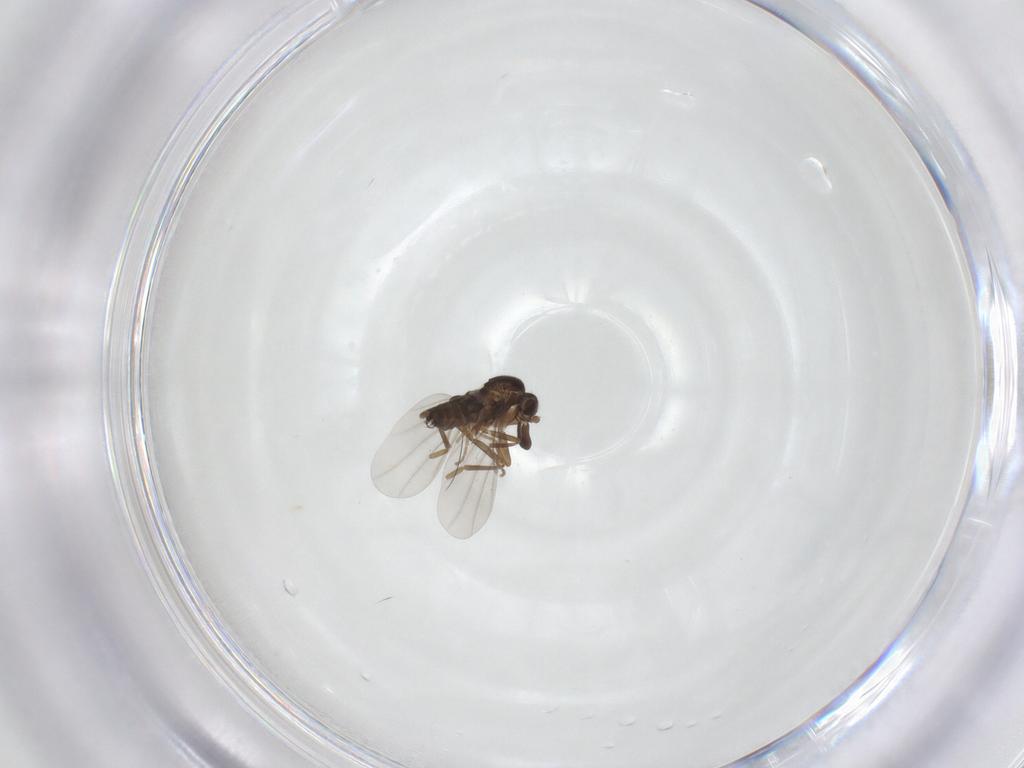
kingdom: Animalia
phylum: Arthropoda
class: Insecta
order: Diptera
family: Phoridae
